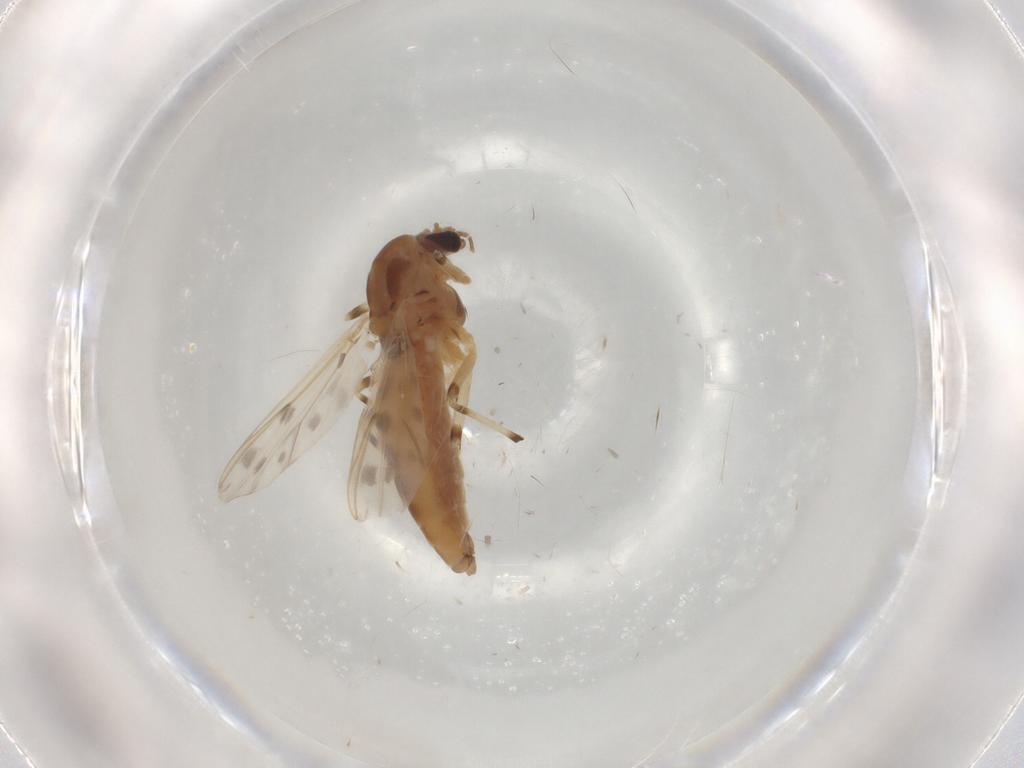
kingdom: Animalia
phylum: Arthropoda
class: Insecta
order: Diptera
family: Chironomidae
